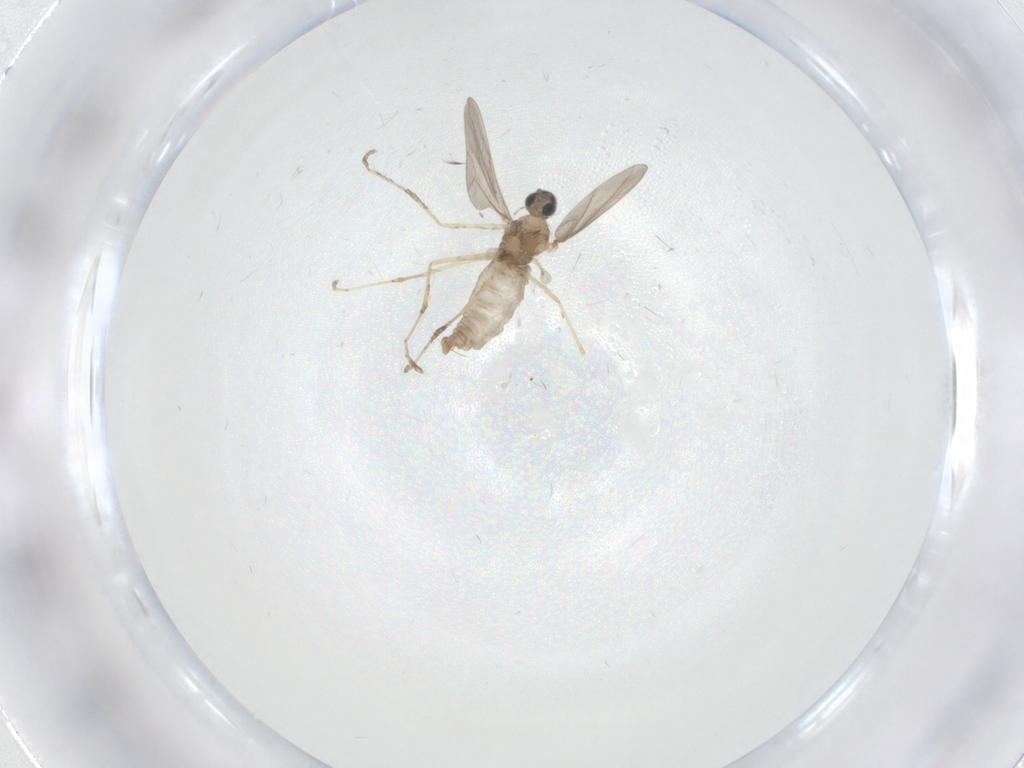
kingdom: Animalia
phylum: Arthropoda
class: Insecta
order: Diptera
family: Cecidomyiidae
